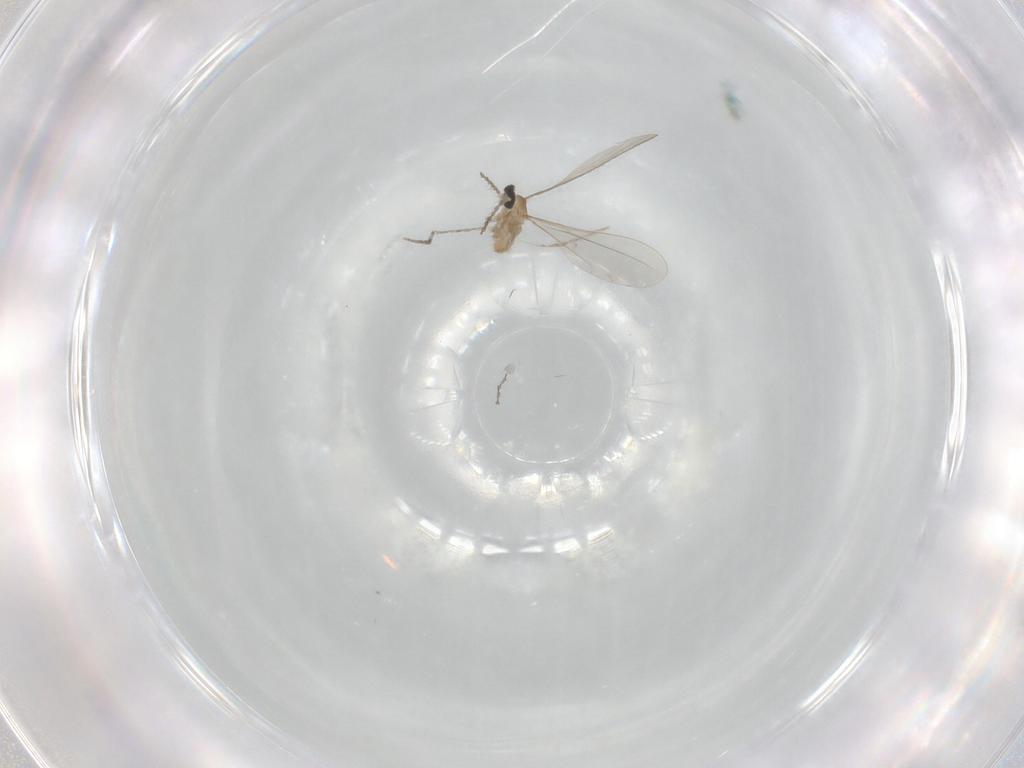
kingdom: Animalia
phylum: Arthropoda
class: Insecta
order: Diptera
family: Cecidomyiidae
